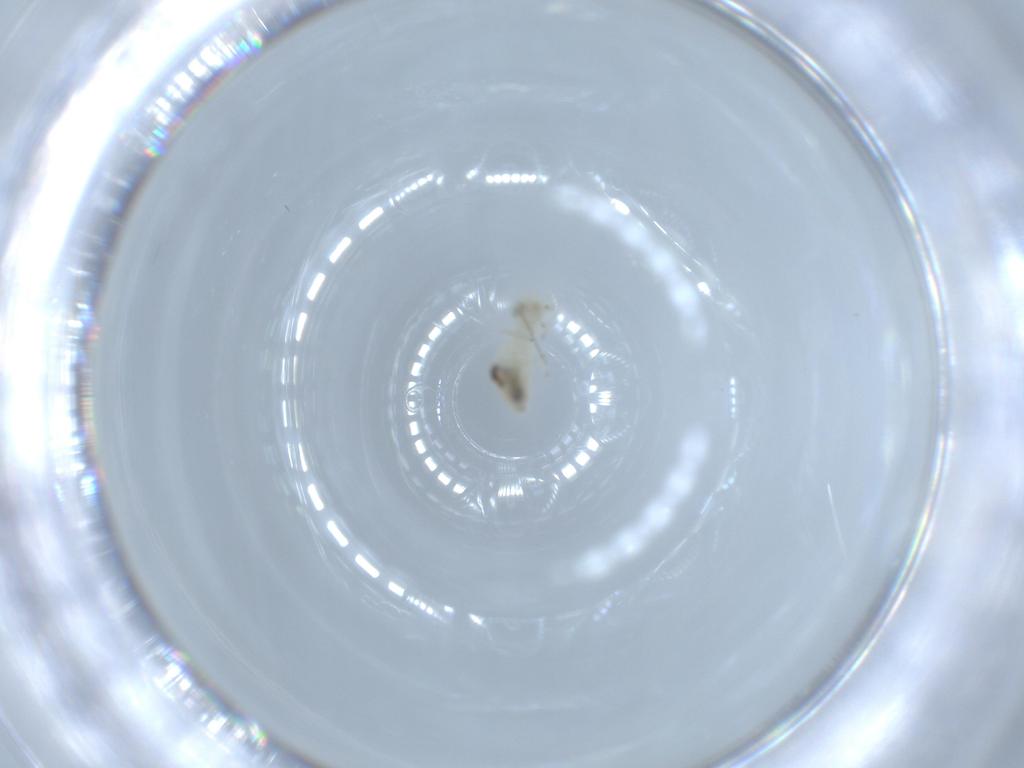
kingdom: Animalia
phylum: Arthropoda
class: Insecta
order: Psocodea
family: Caeciliusidae
